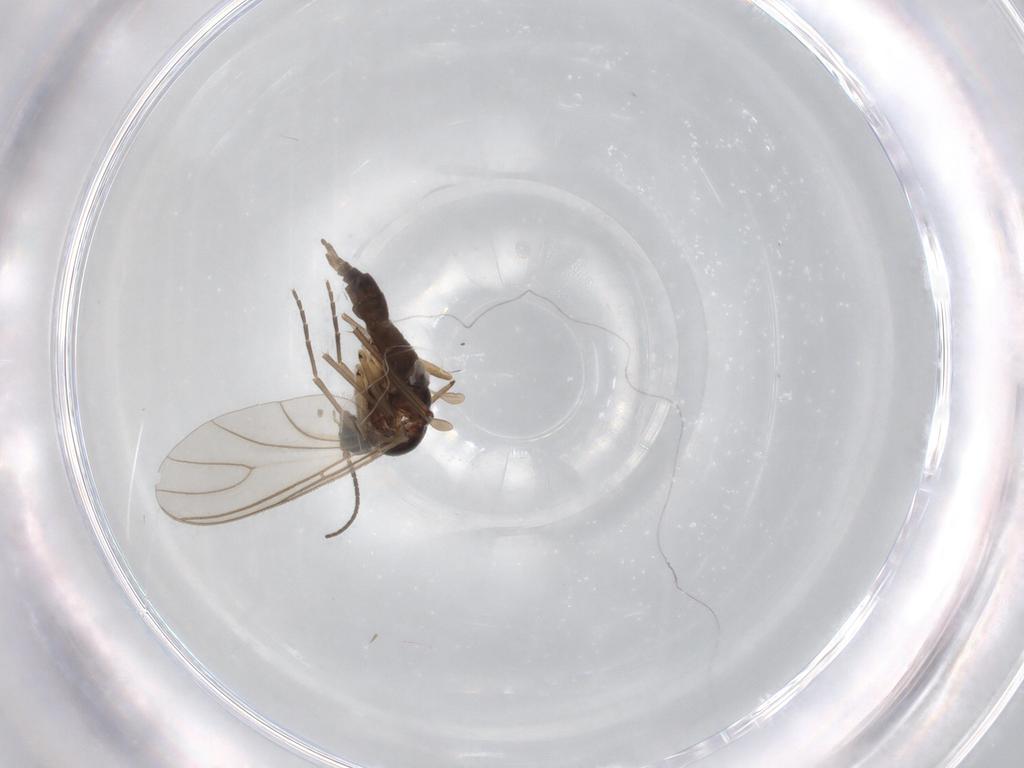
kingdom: Animalia
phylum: Arthropoda
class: Insecta
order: Diptera
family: Sciaridae
